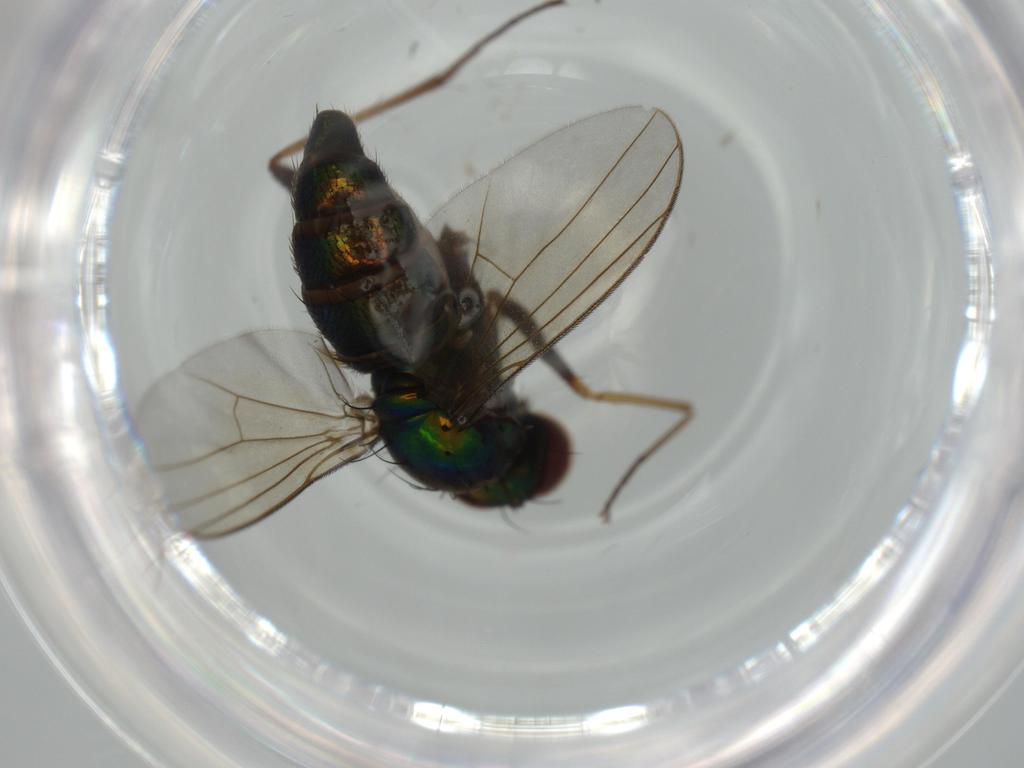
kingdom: Animalia
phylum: Arthropoda
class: Insecta
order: Diptera
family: Dolichopodidae
